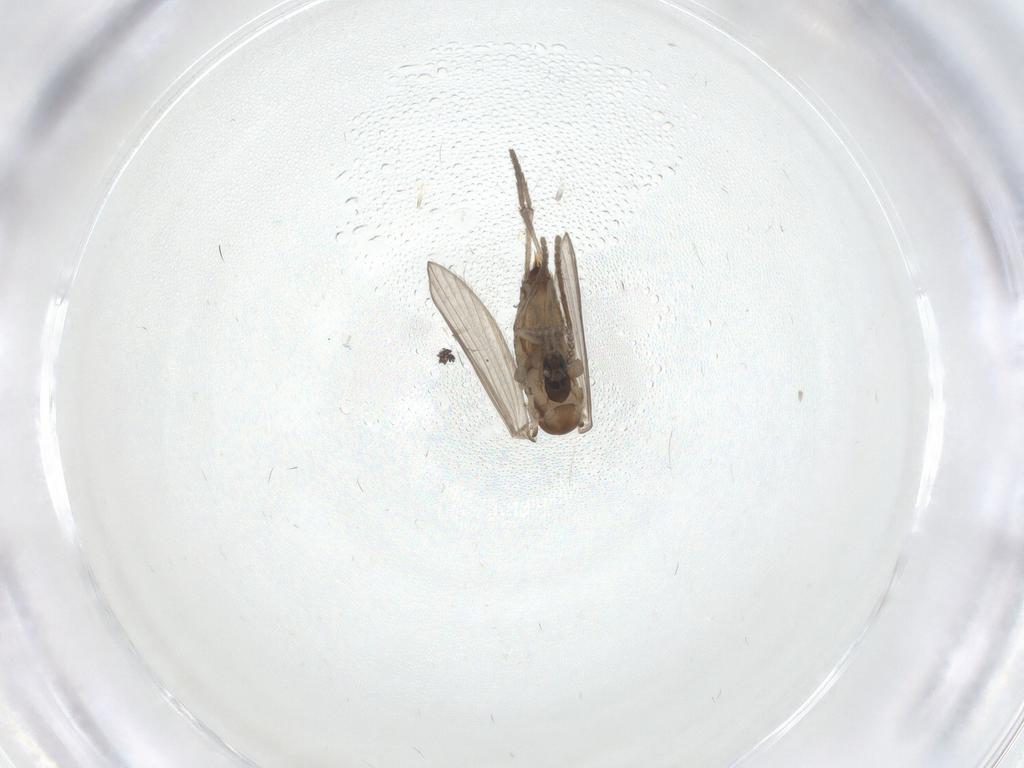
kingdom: Animalia
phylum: Arthropoda
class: Insecta
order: Diptera
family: Psychodidae
